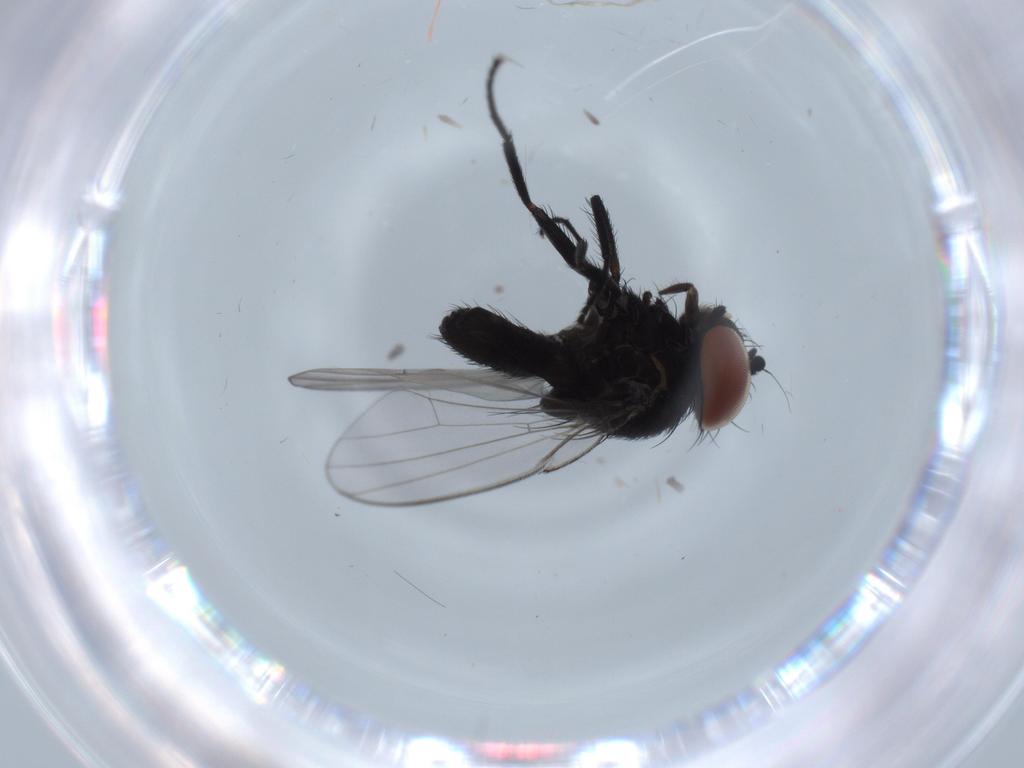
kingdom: Animalia
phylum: Arthropoda
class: Insecta
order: Diptera
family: Milichiidae
